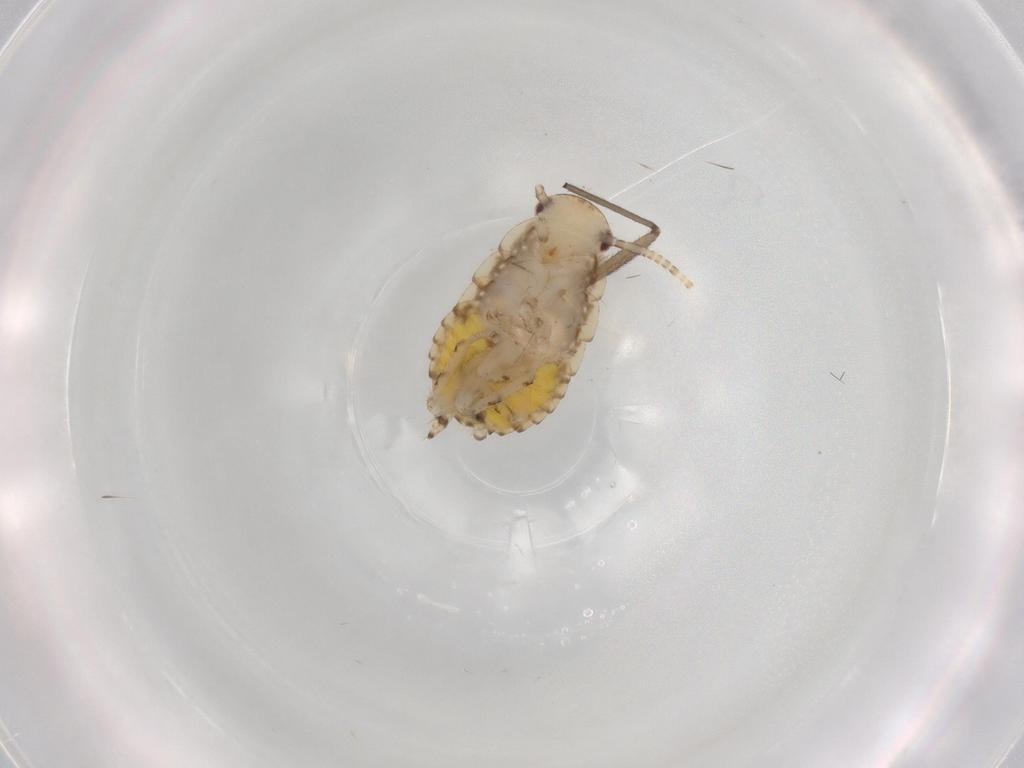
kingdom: Animalia
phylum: Arthropoda
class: Insecta
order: Blattodea
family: Ectobiidae
